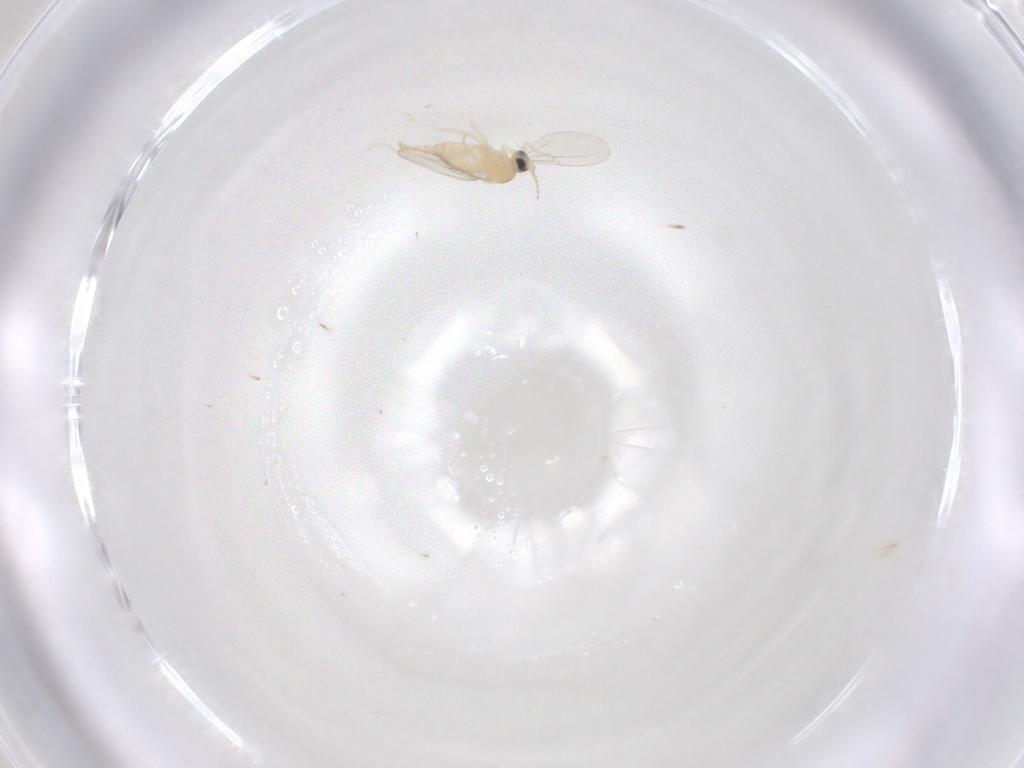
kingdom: Animalia
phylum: Arthropoda
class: Insecta
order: Diptera
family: Cecidomyiidae
